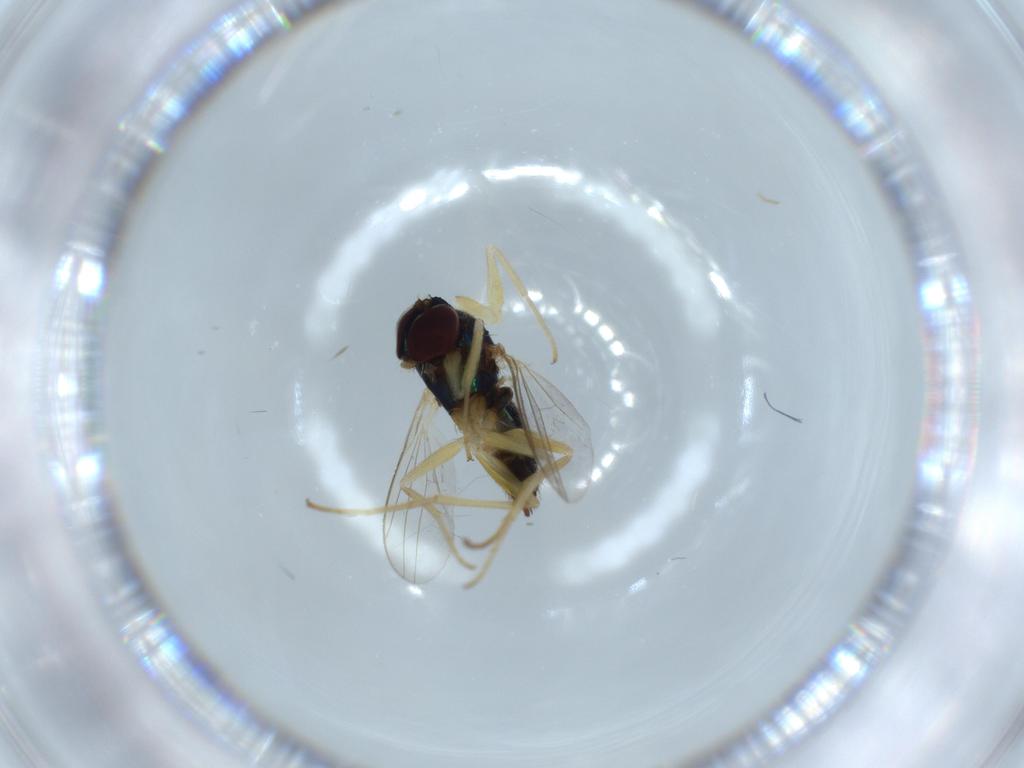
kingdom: Animalia
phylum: Arthropoda
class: Insecta
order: Diptera
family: Dolichopodidae
